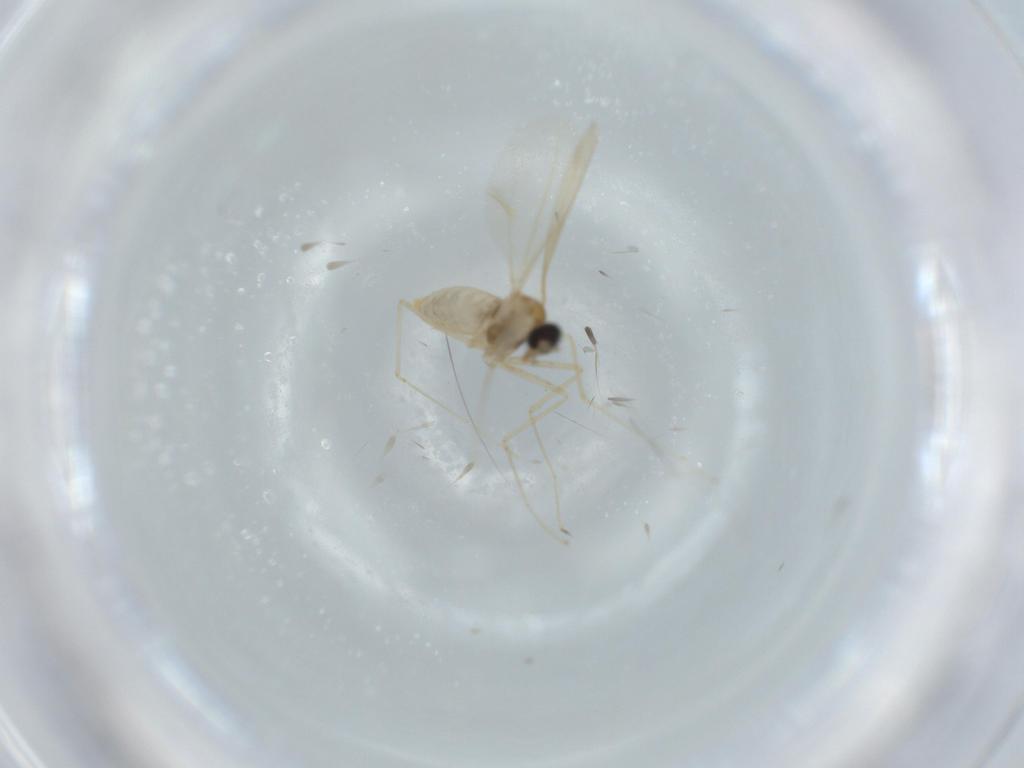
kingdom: Animalia
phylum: Arthropoda
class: Insecta
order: Diptera
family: Cecidomyiidae
